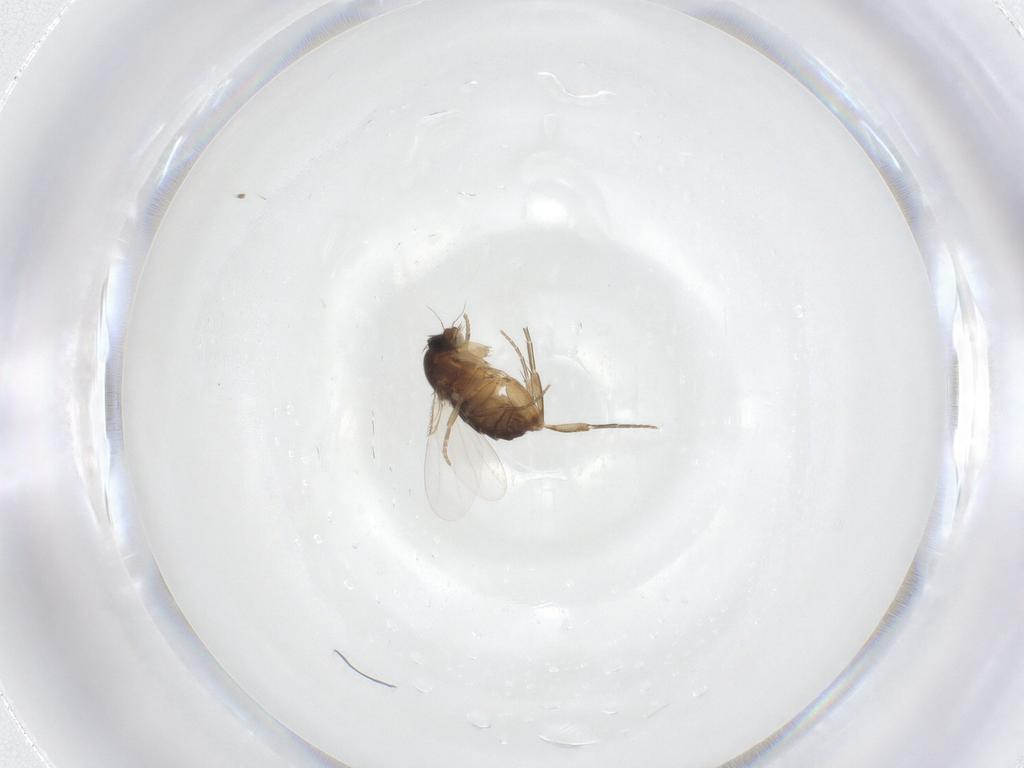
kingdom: Animalia
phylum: Arthropoda
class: Insecta
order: Diptera
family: Phoridae
